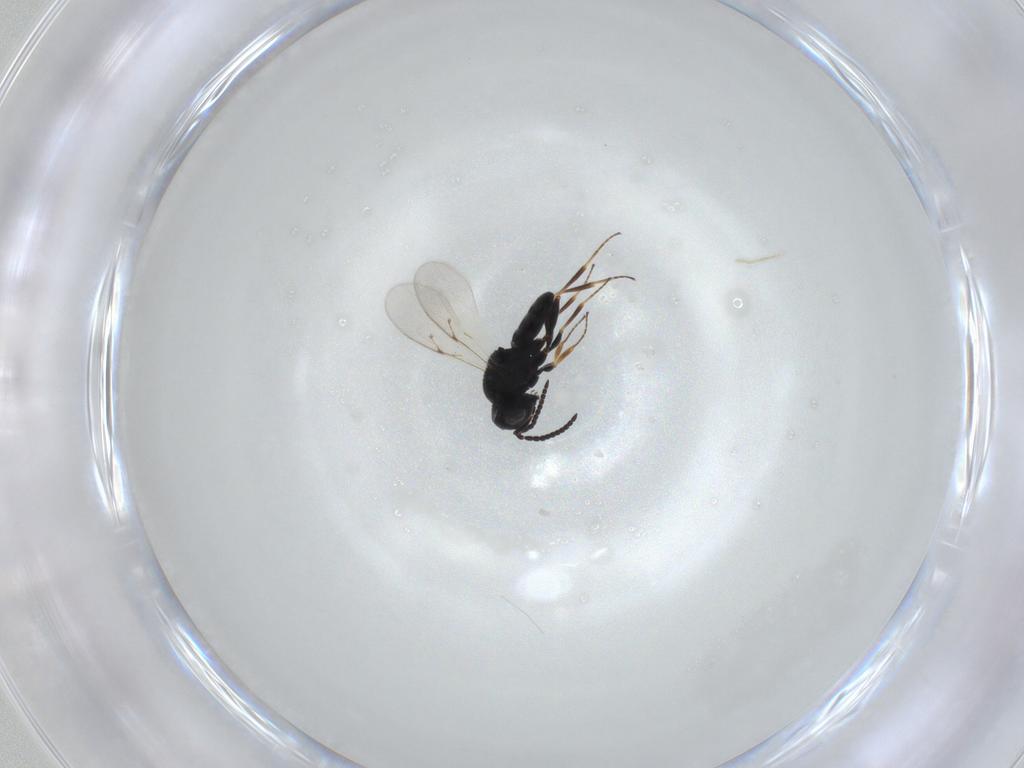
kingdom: Animalia
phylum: Arthropoda
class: Insecta
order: Hymenoptera
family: Scelionidae
